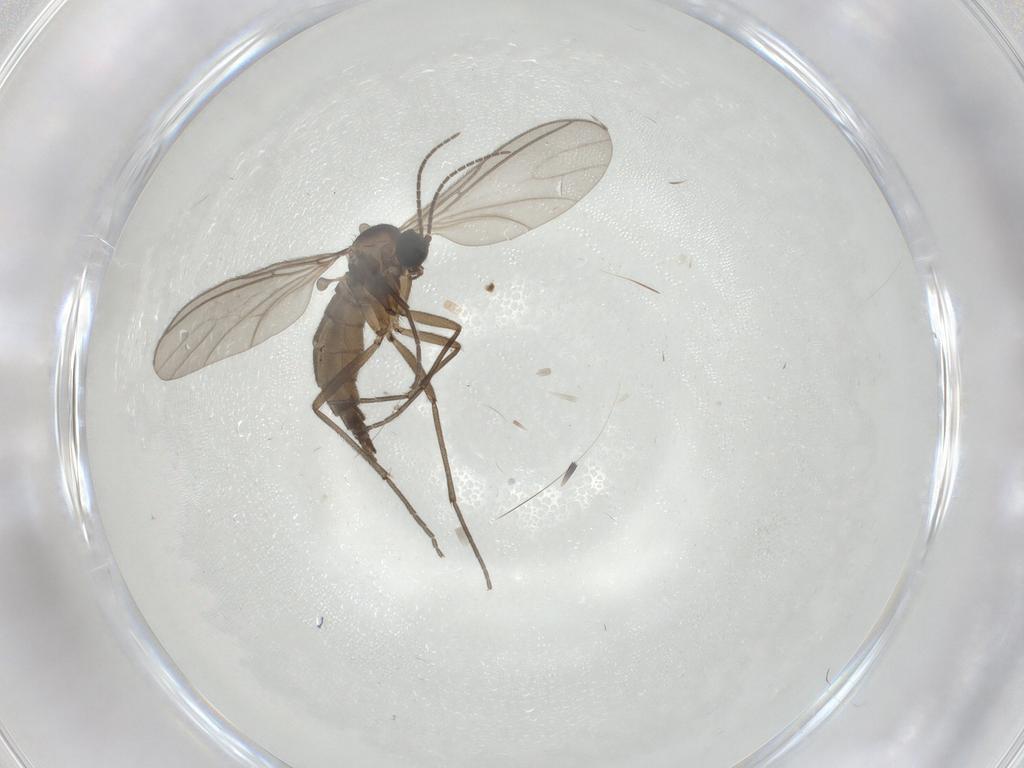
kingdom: Animalia
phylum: Arthropoda
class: Insecta
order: Diptera
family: Sciaridae
